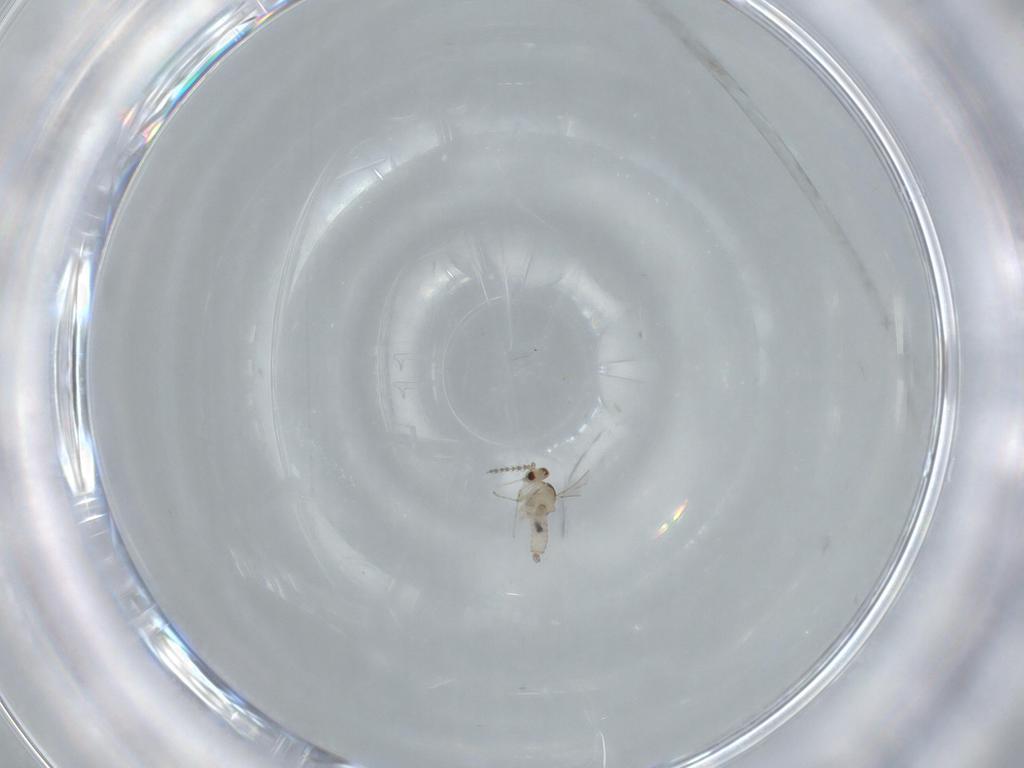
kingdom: Animalia
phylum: Arthropoda
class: Insecta
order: Diptera
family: Sciaridae
